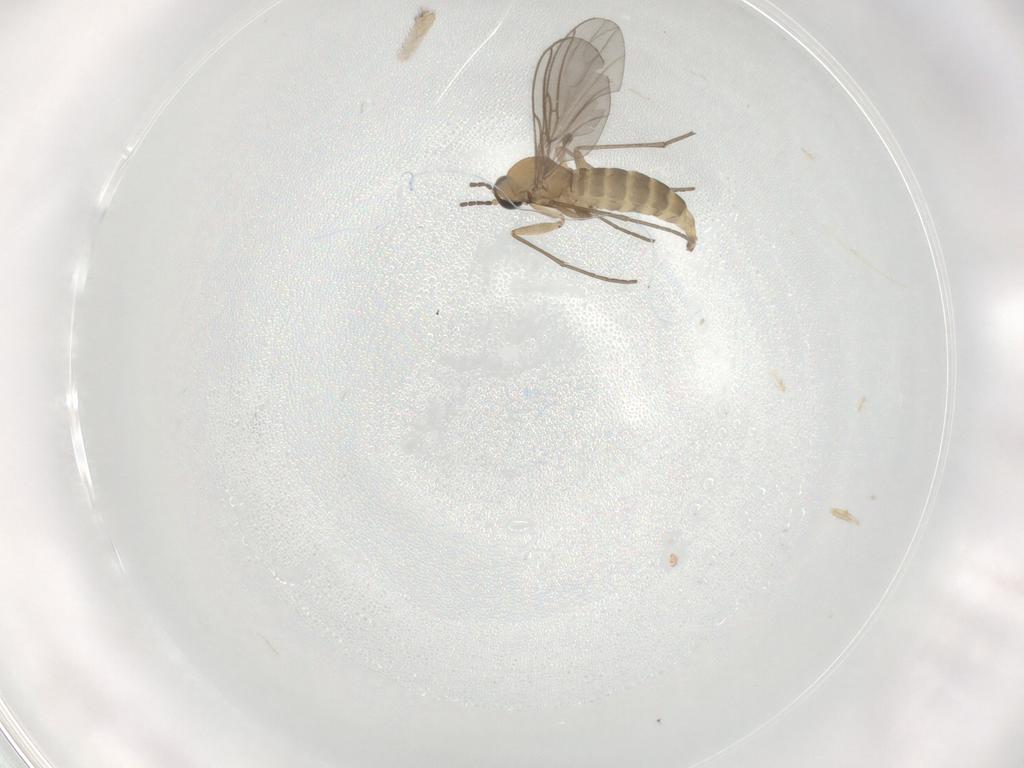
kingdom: Animalia
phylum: Arthropoda
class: Insecta
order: Diptera
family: Sciaridae
